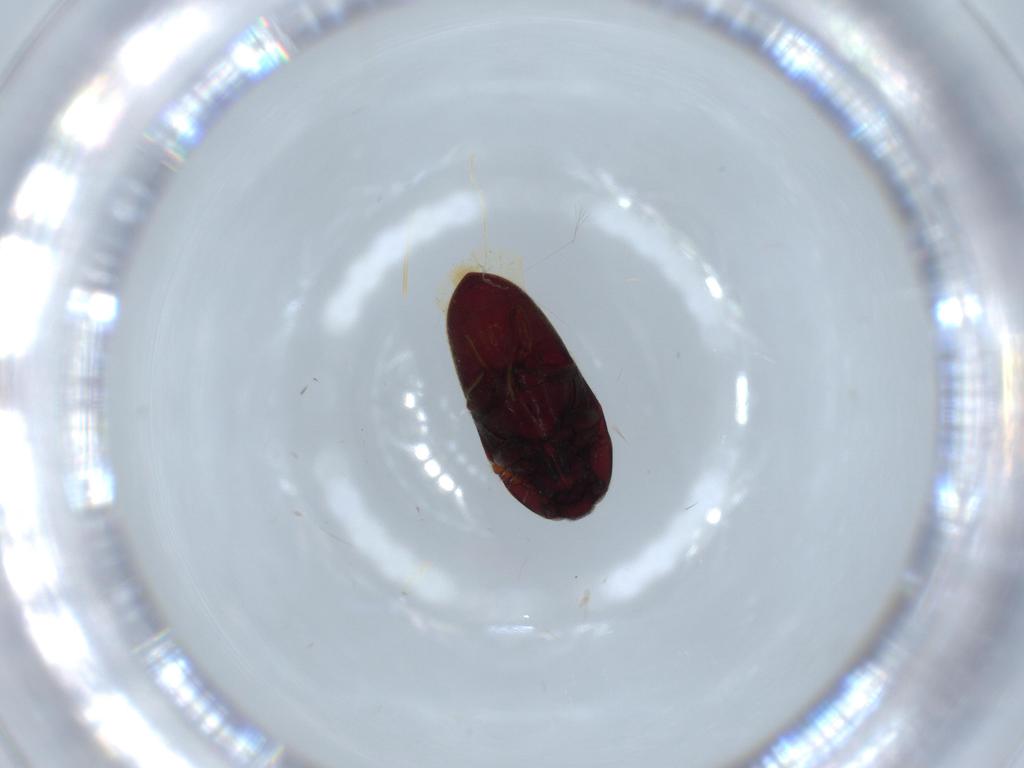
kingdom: Animalia
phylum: Arthropoda
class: Insecta
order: Coleoptera
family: Throscidae
